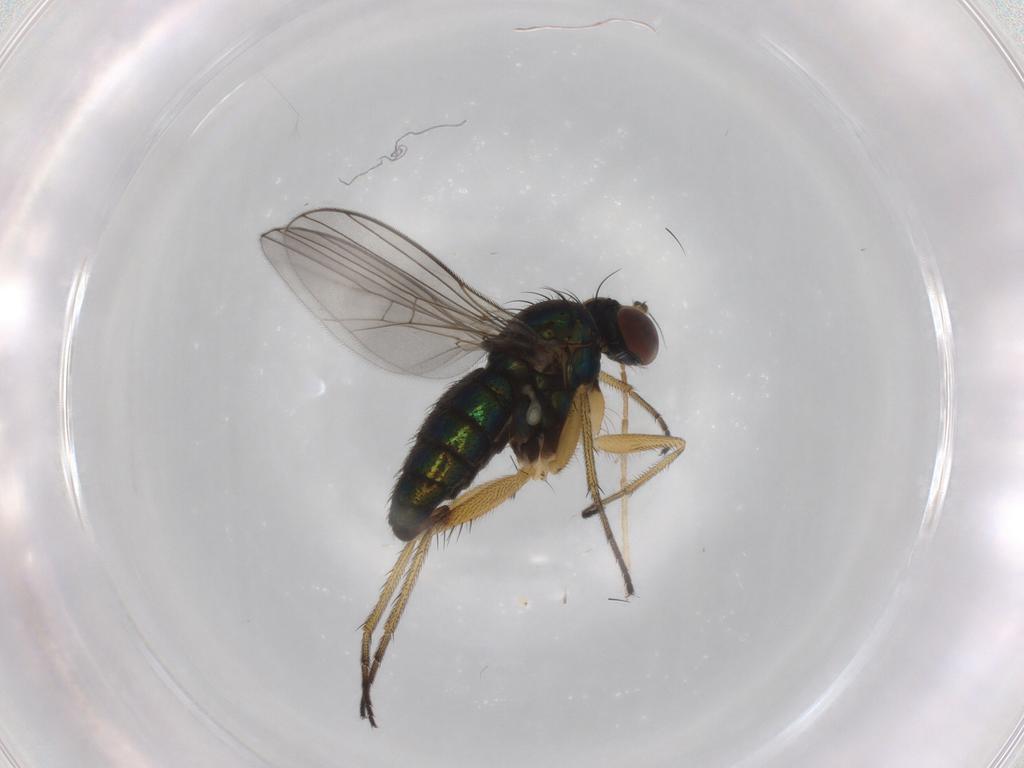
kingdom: Animalia
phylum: Arthropoda
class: Insecta
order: Diptera
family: Dolichopodidae
